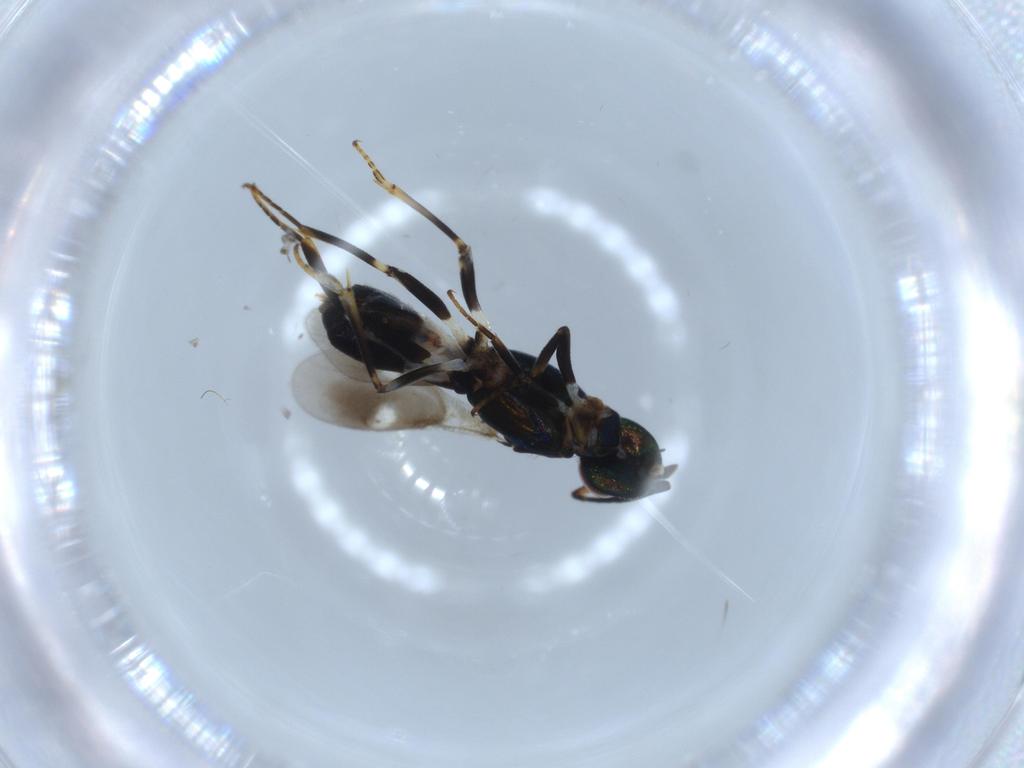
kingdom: Animalia
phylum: Arthropoda
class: Insecta
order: Hymenoptera
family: Eupelmidae
